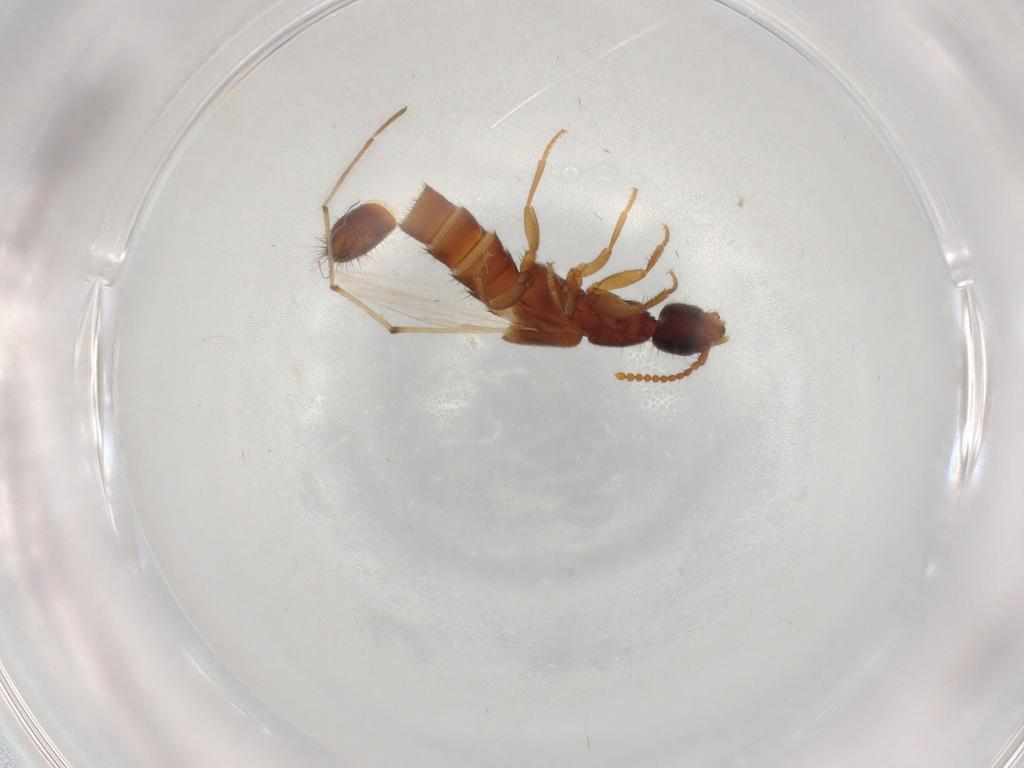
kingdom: Animalia
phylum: Arthropoda
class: Insecta
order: Coleoptera
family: Staphylinidae
